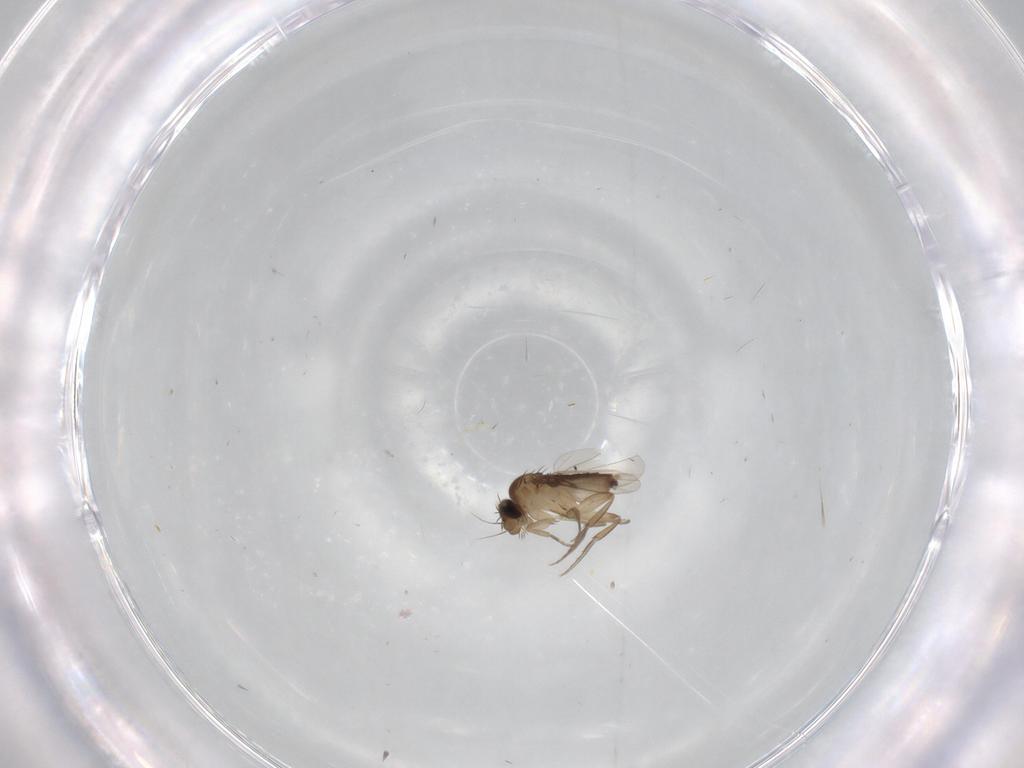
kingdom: Animalia
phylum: Arthropoda
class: Insecta
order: Diptera
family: Phoridae
